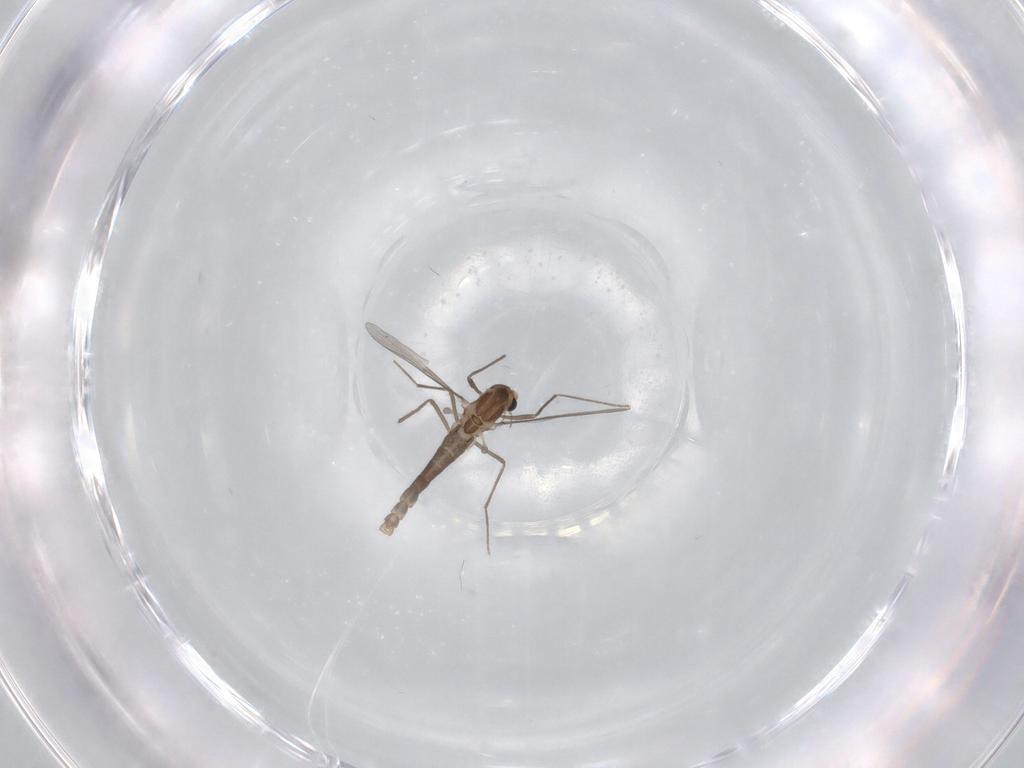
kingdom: Animalia
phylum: Arthropoda
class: Insecta
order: Diptera
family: Chironomidae
